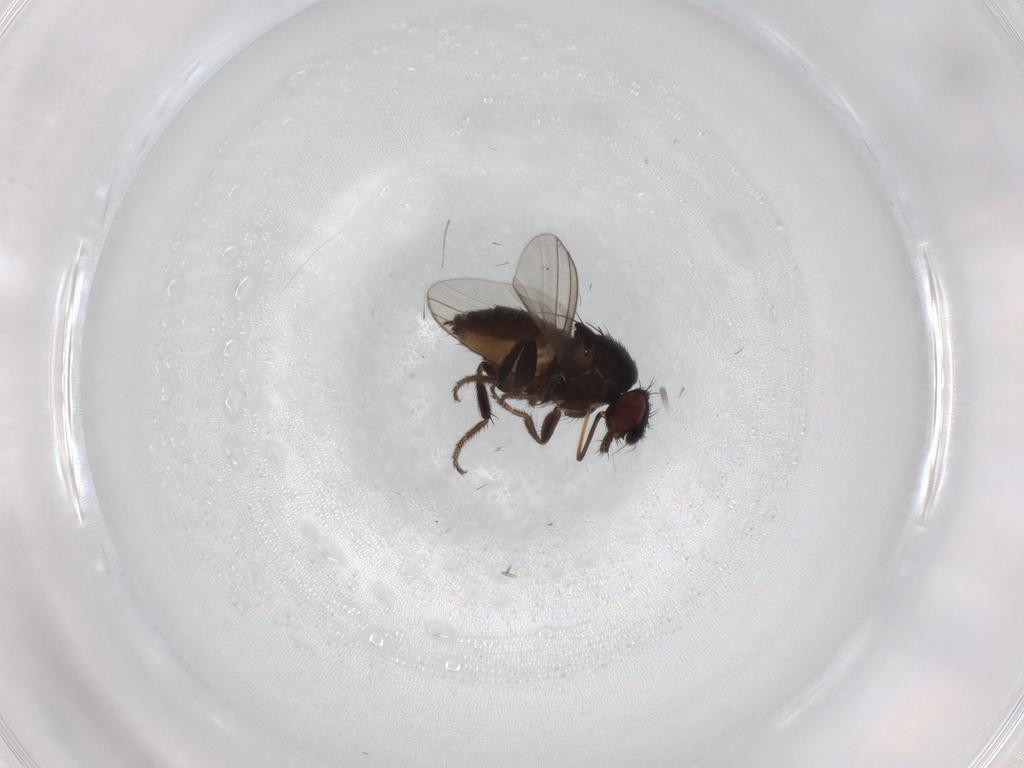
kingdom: Animalia
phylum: Arthropoda
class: Insecta
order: Diptera
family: Milichiidae
